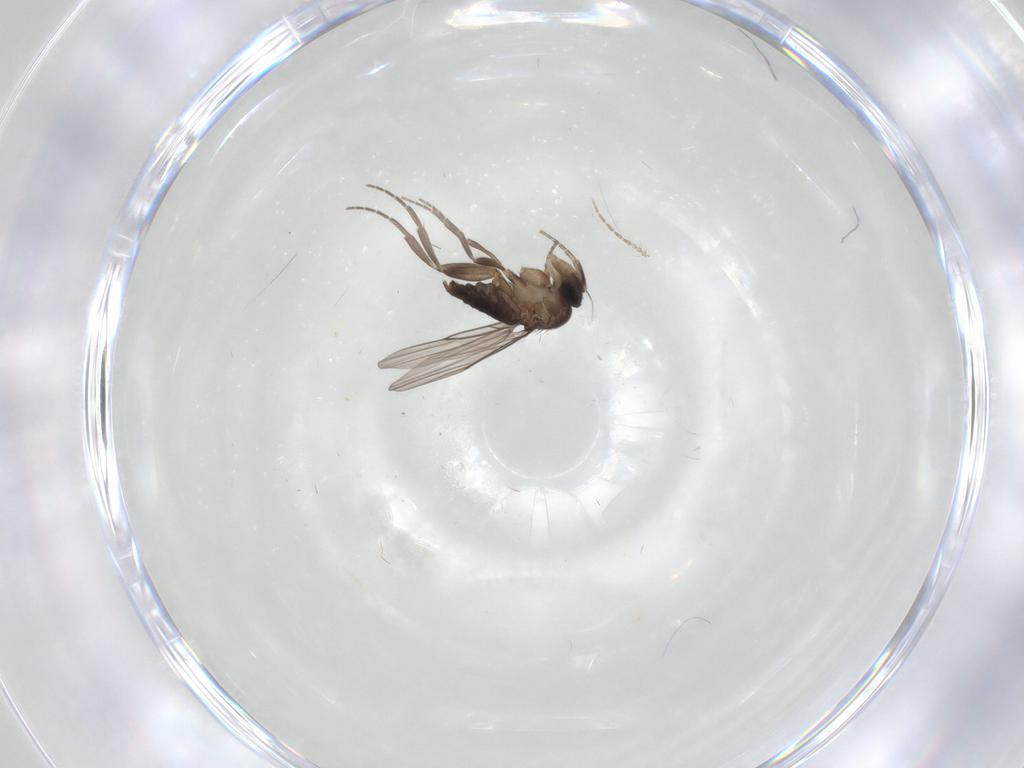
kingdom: Animalia
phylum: Arthropoda
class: Insecta
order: Diptera
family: Phoridae
